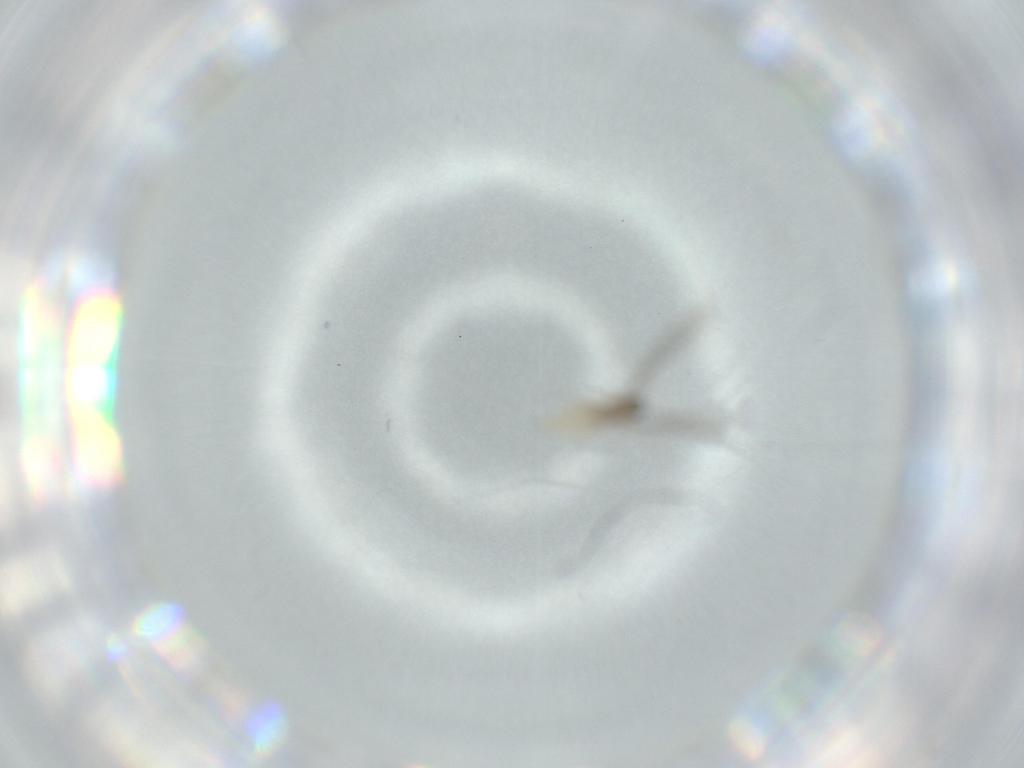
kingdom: Animalia
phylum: Arthropoda
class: Insecta
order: Diptera
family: Cecidomyiidae
